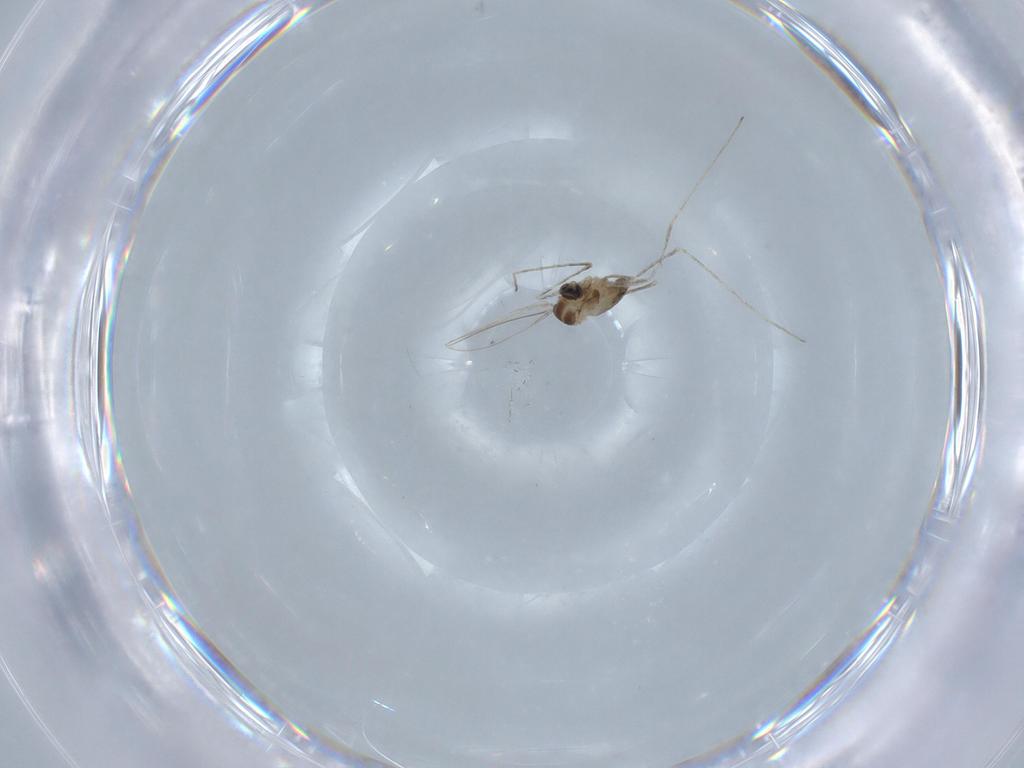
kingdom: Animalia
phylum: Arthropoda
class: Insecta
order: Diptera
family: Cecidomyiidae
